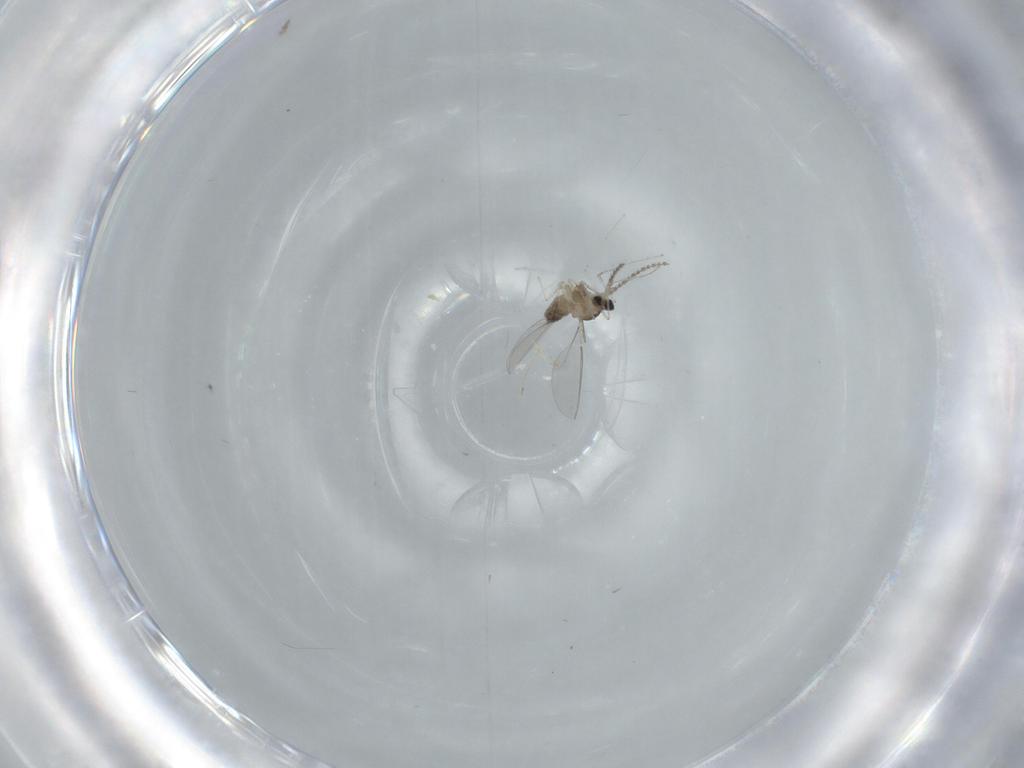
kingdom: Animalia
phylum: Arthropoda
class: Insecta
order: Diptera
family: Cecidomyiidae
